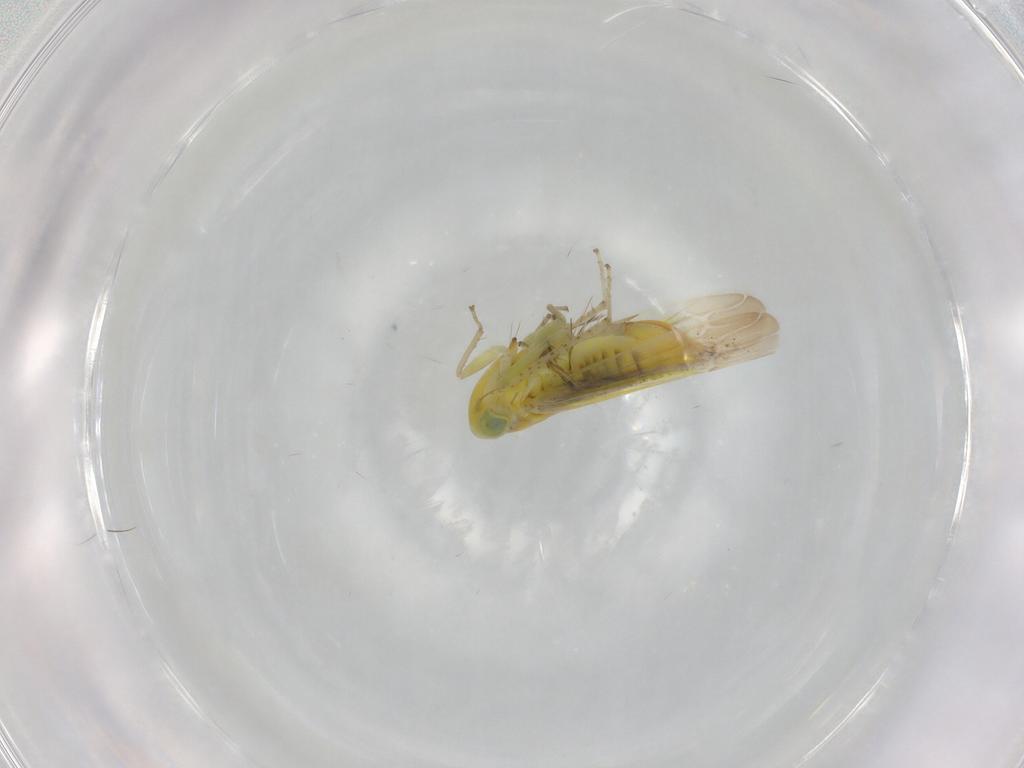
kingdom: Animalia
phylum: Arthropoda
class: Insecta
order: Hemiptera
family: Cicadellidae
